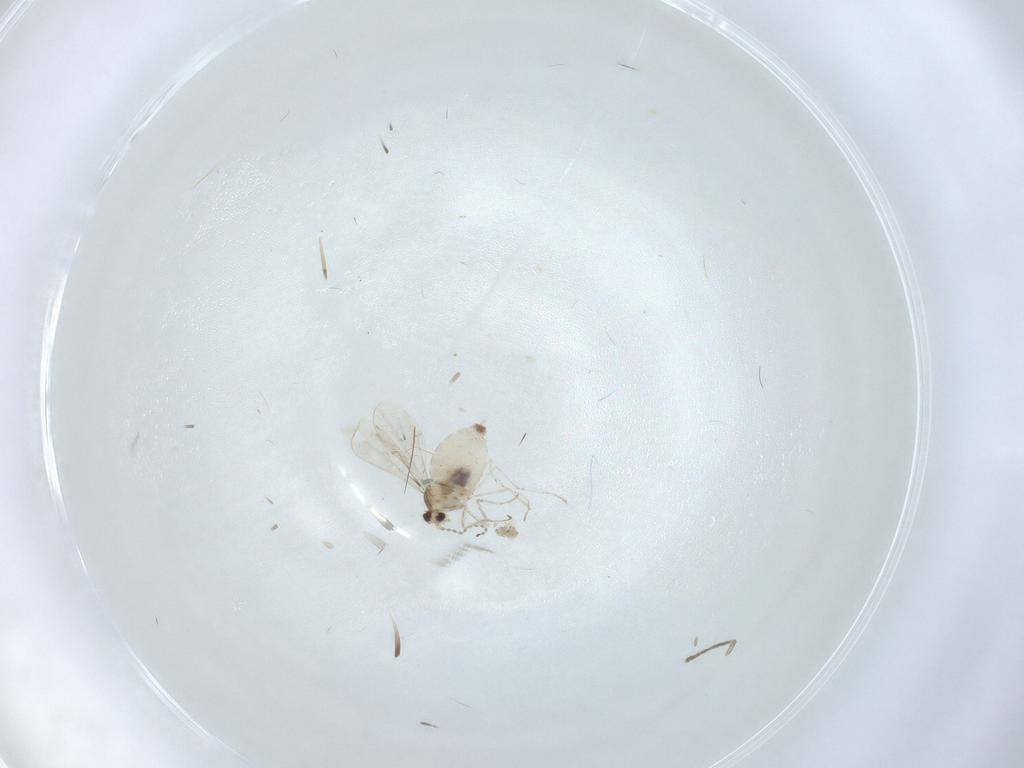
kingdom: Animalia
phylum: Arthropoda
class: Insecta
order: Diptera
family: Cecidomyiidae
